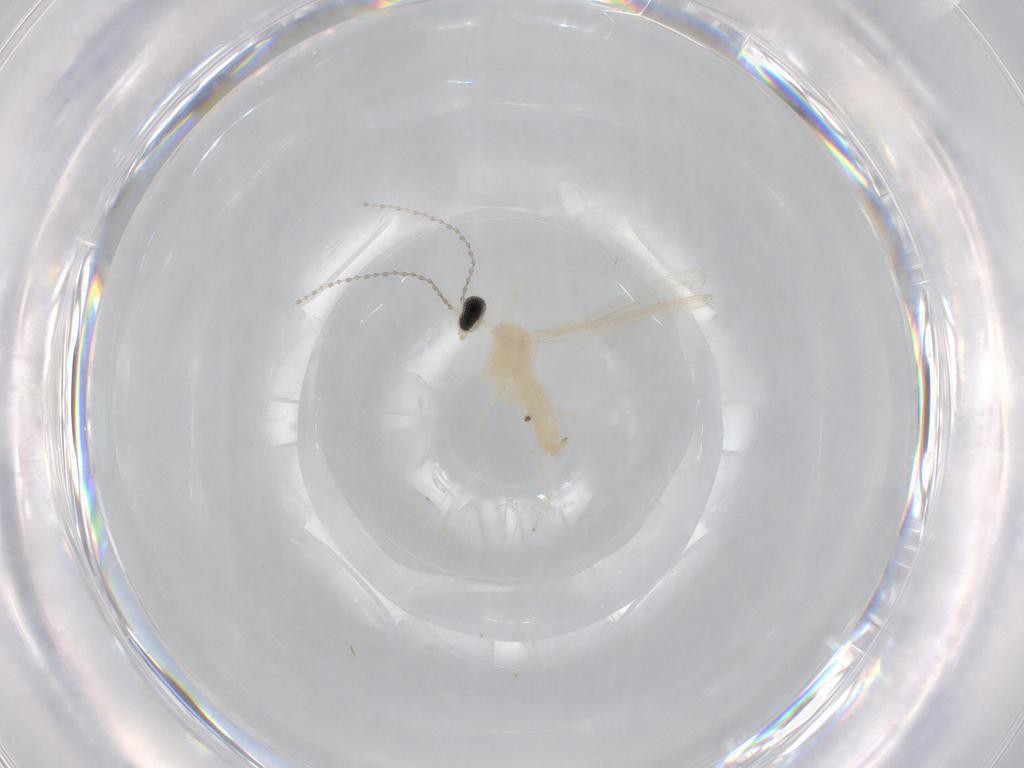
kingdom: Animalia
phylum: Arthropoda
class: Insecta
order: Diptera
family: Cecidomyiidae
